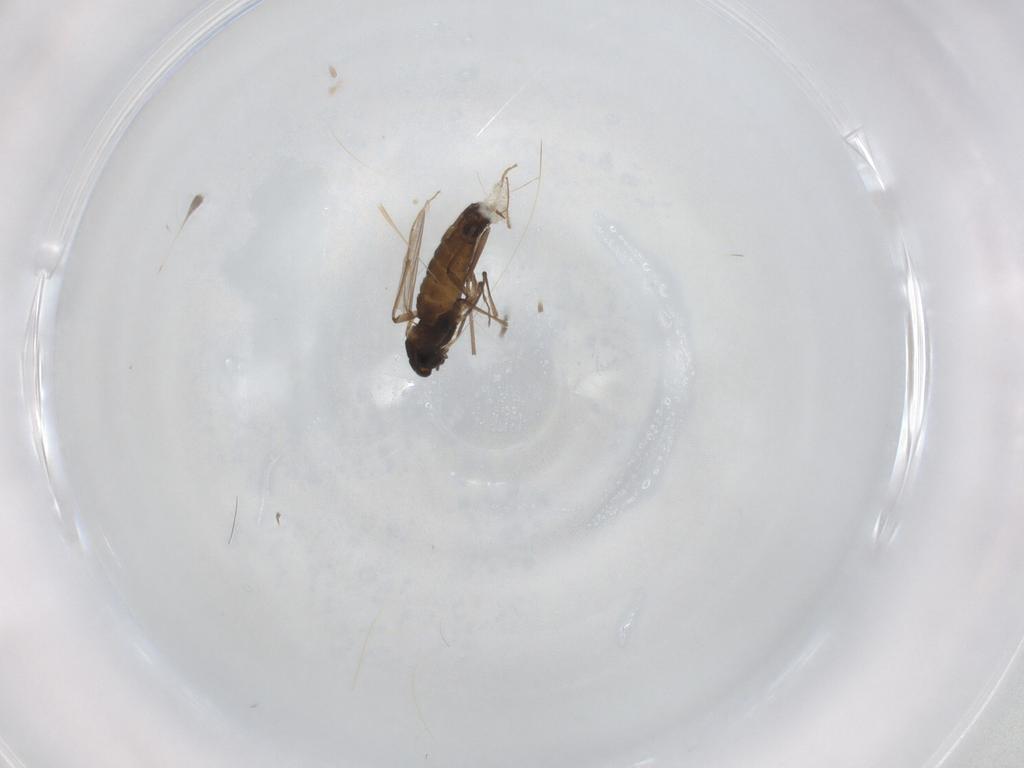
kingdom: Animalia
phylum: Arthropoda
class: Insecta
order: Diptera
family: Chironomidae
